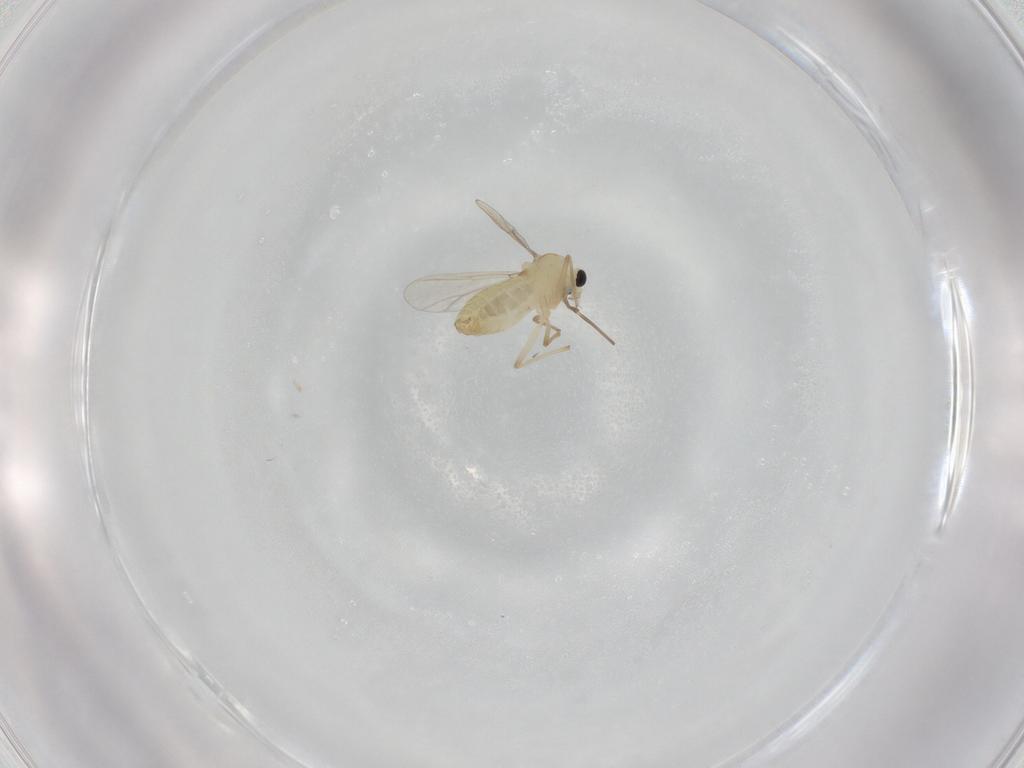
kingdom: Animalia
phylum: Arthropoda
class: Insecta
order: Diptera
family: Chironomidae
